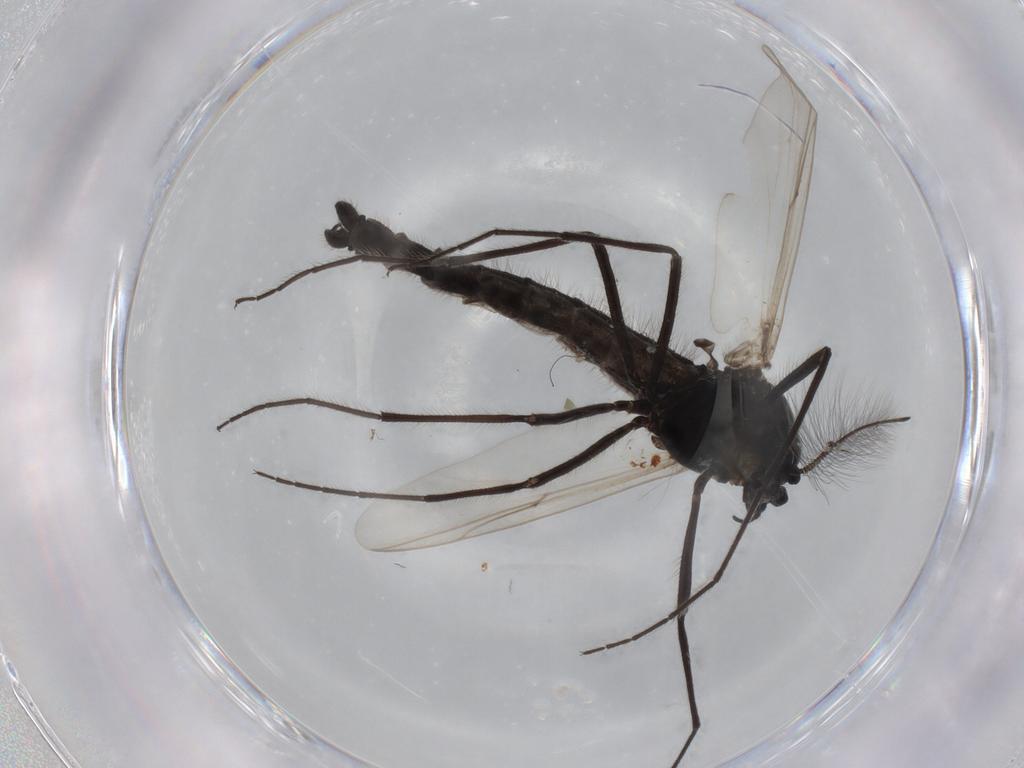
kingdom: Animalia
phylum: Arthropoda
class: Insecta
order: Diptera
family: Chironomidae
